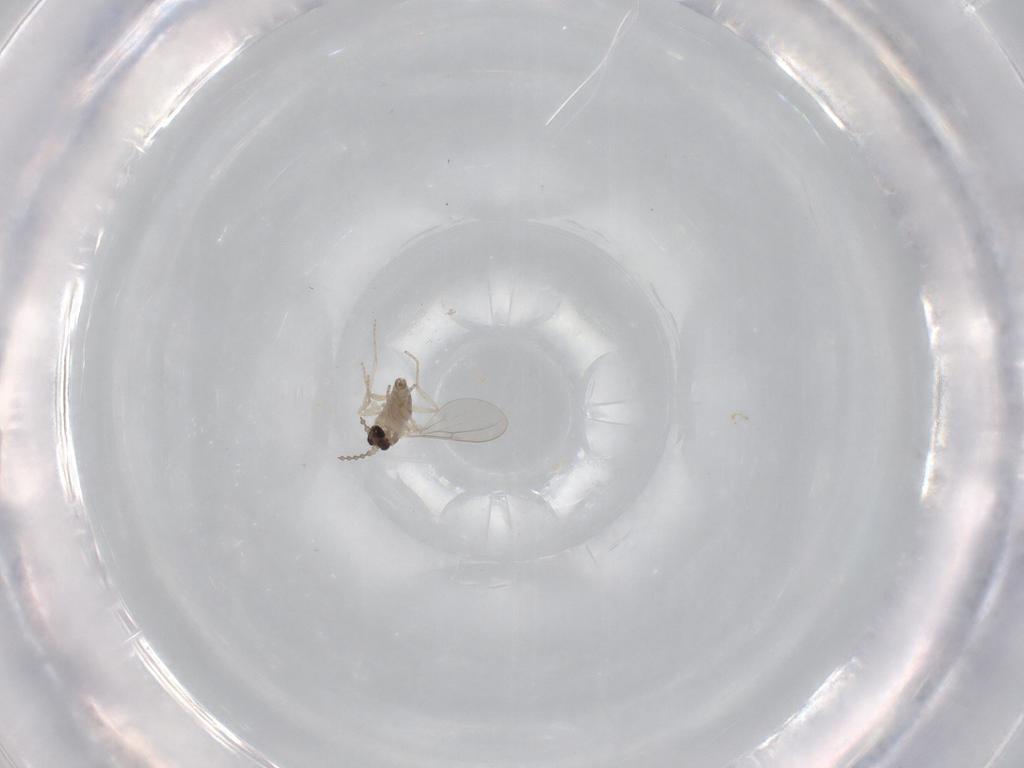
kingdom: Animalia
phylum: Arthropoda
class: Insecta
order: Diptera
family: Cecidomyiidae
